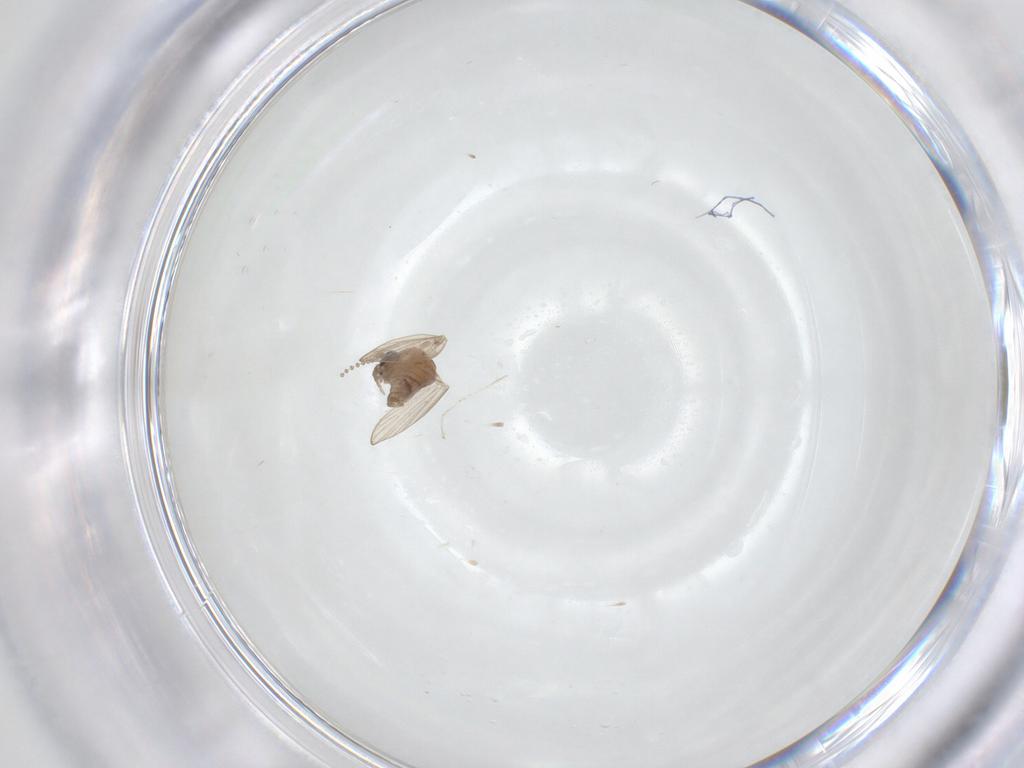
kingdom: Animalia
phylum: Arthropoda
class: Insecta
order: Diptera
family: Psychodidae
